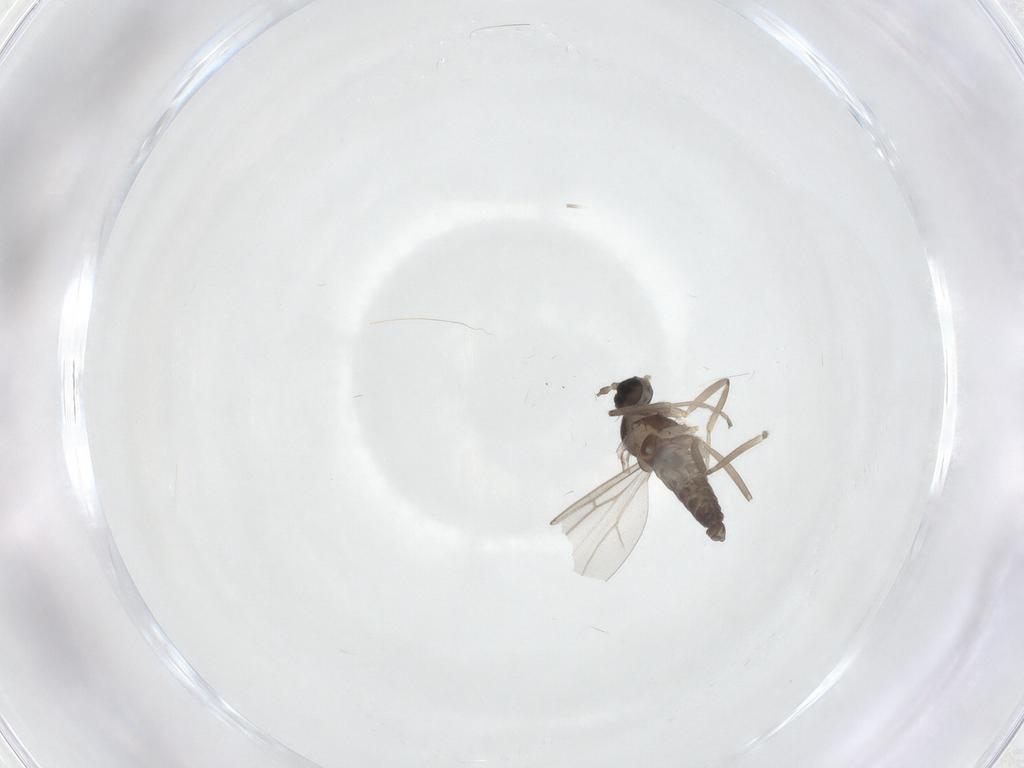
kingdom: Animalia
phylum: Arthropoda
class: Insecta
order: Diptera
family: Cecidomyiidae
